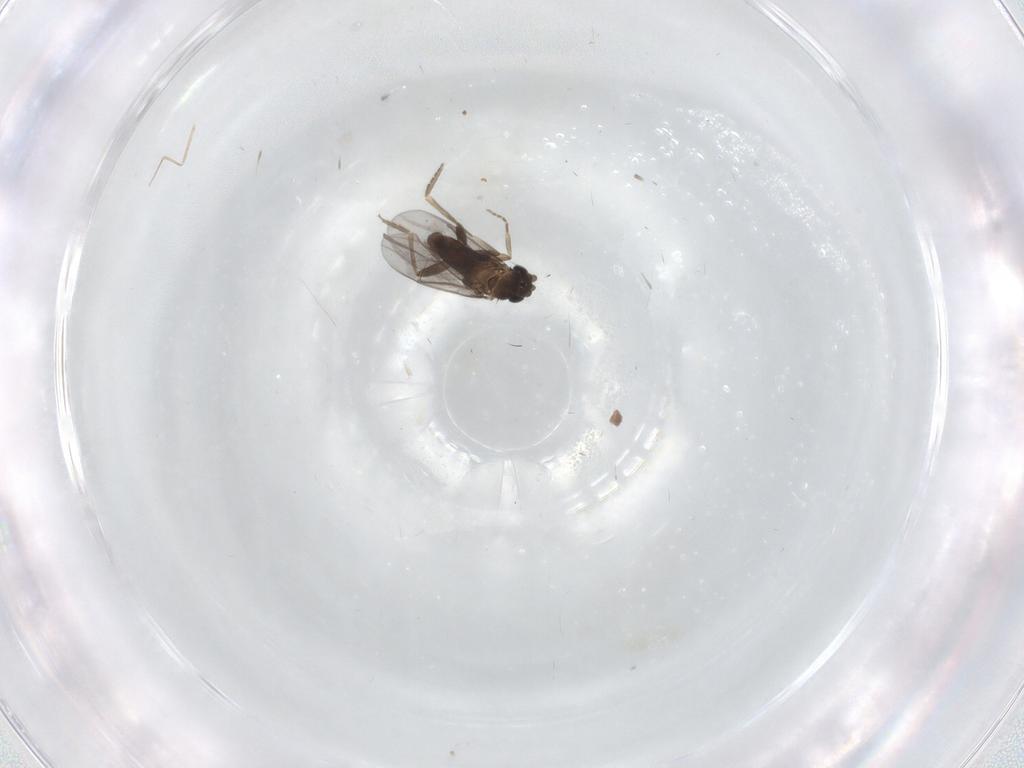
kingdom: Animalia
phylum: Arthropoda
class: Insecta
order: Diptera
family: Cecidomyiidae
